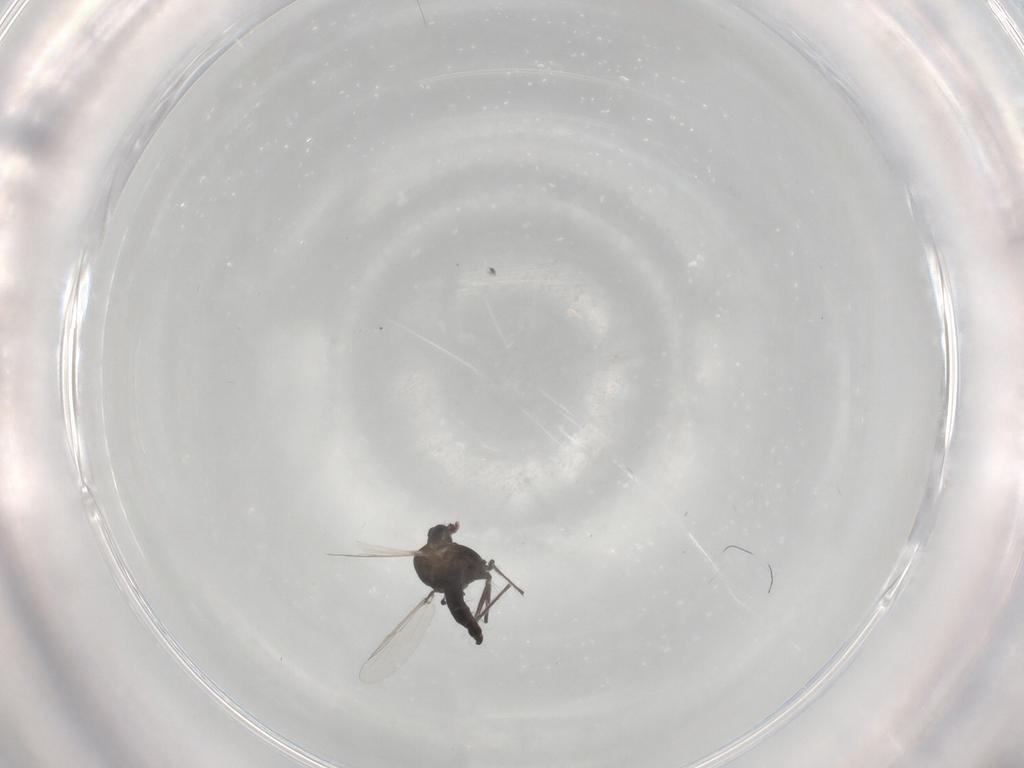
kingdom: Animalia
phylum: Arthropoda
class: Insecta
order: Diptera
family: Chironomidae
